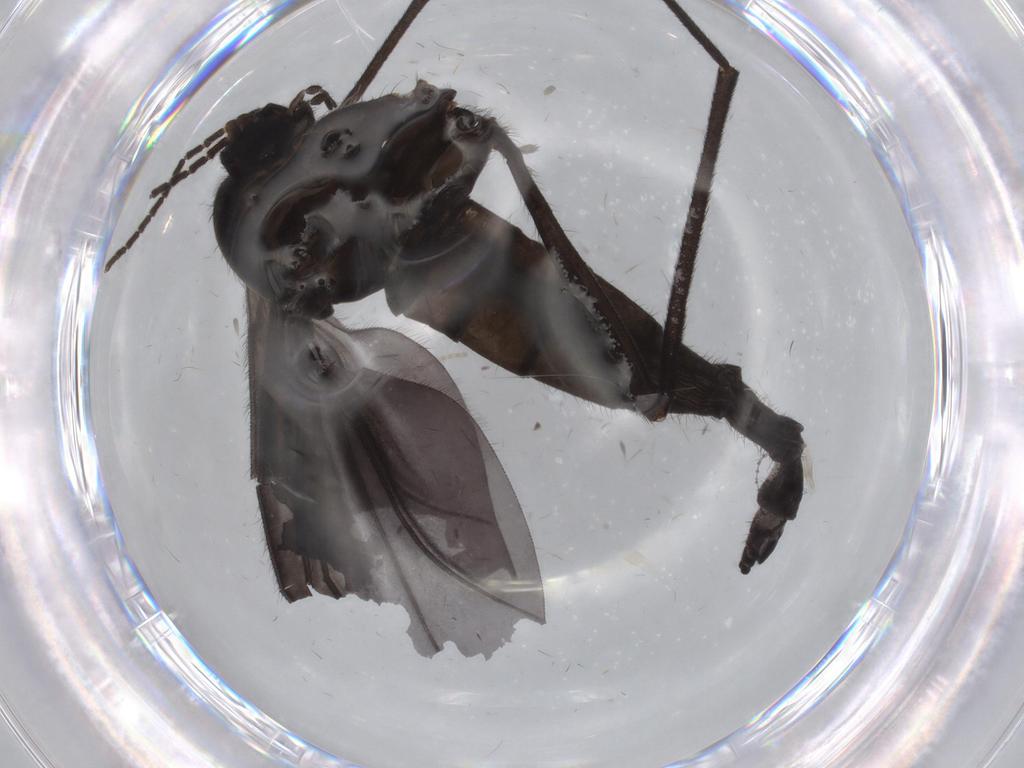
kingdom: Animalia
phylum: Arthropoda
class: Insecta
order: Diptera
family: Sciaridae
